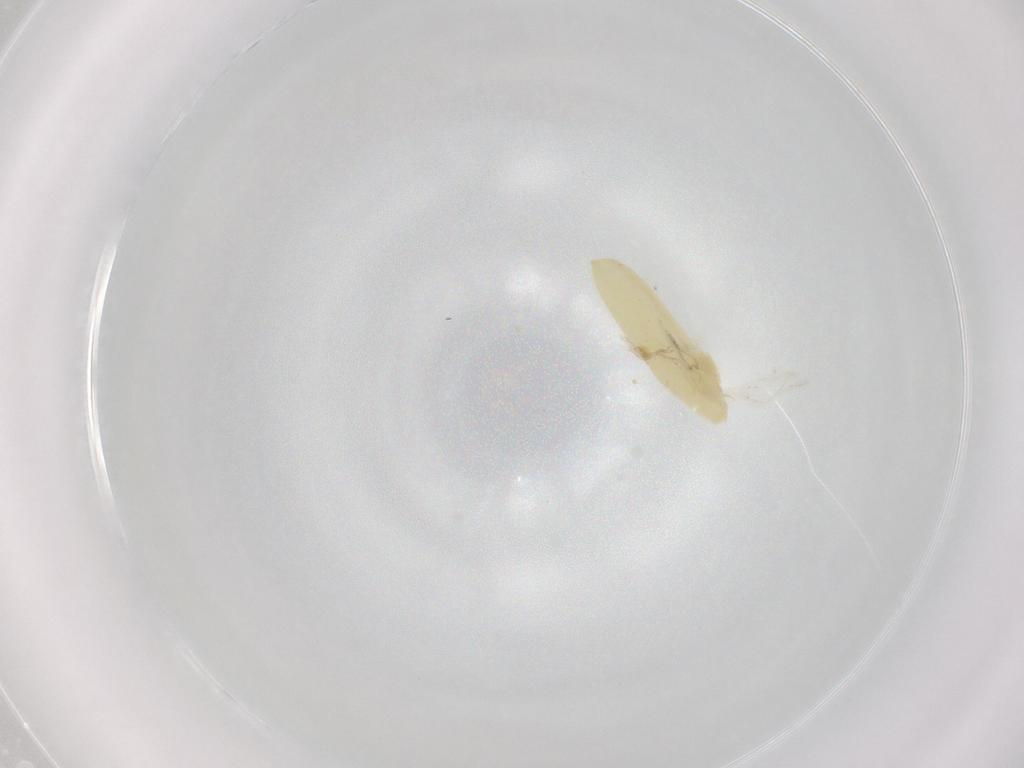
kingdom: Animalia
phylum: Arthropoda
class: Insecta
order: Diptera
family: Muscidae
